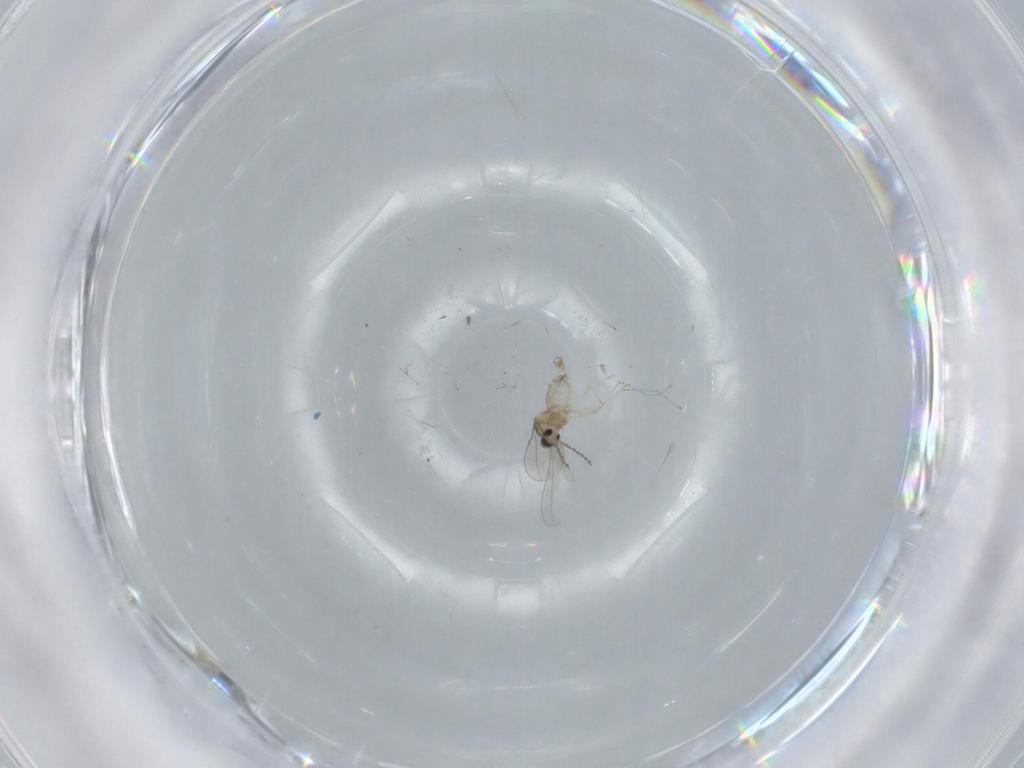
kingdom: Animalia
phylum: Arthropoda
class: Insecta
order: Diptera
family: Cecidomyiidae
